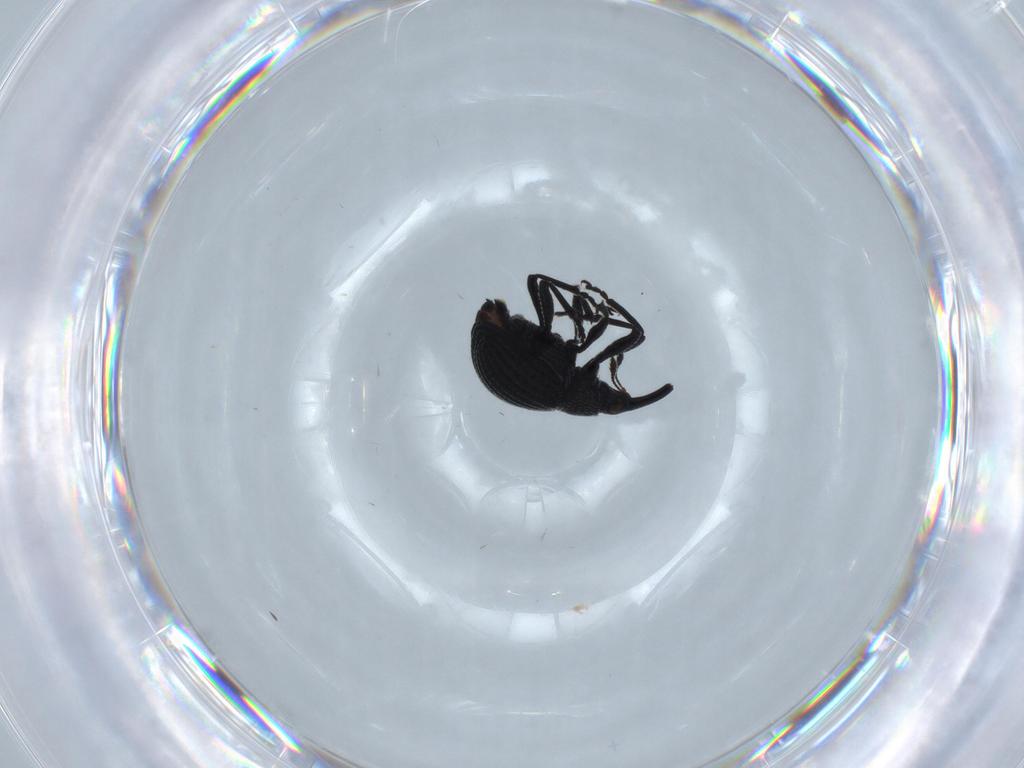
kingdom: Animalia
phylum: Arthropoda
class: Insecta
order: Coleoptera
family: Brentidae
